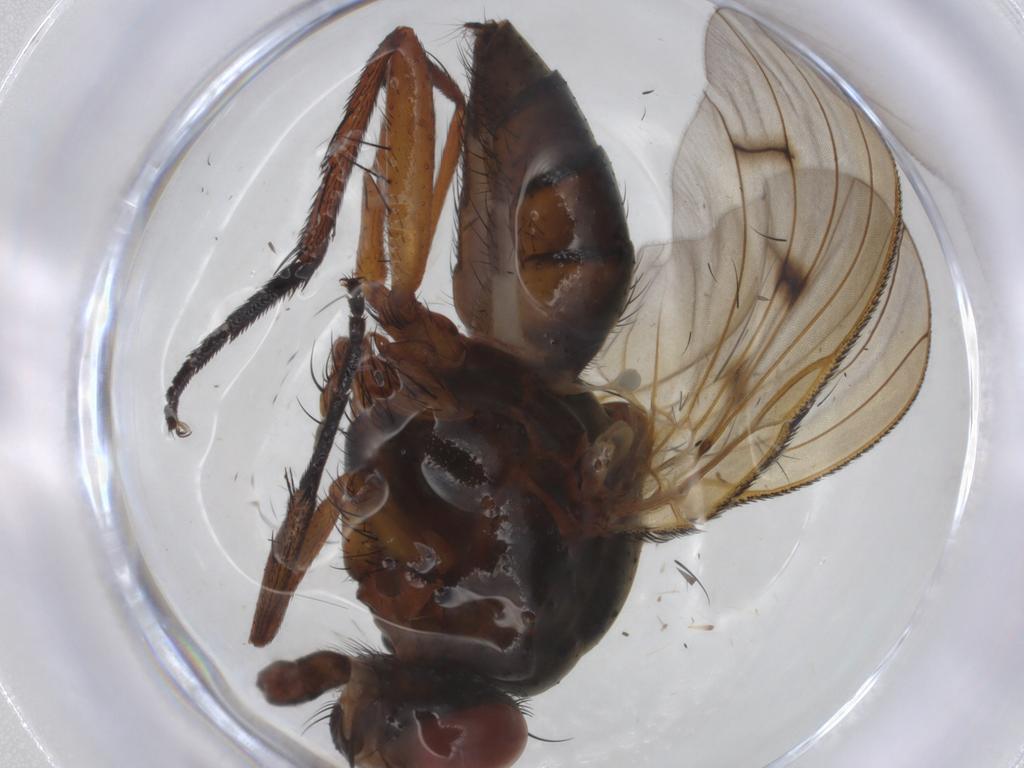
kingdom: Animalia
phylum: Arthropoda
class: Insecta
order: Diptera
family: Anthomyiidae
